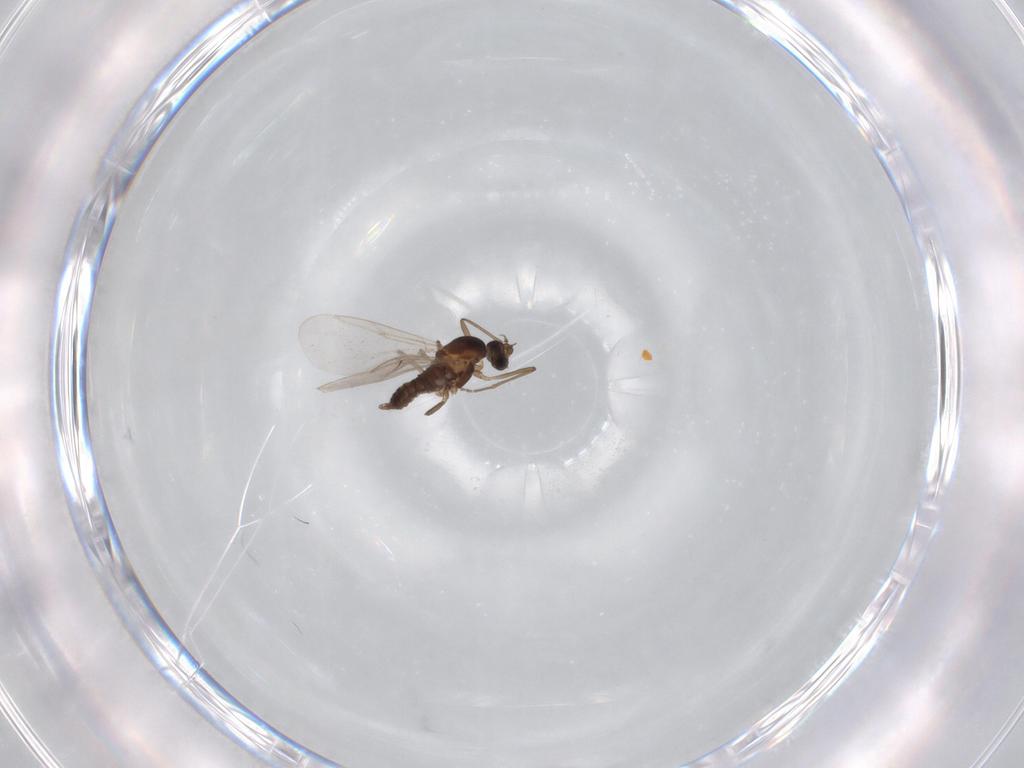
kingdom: Animalia
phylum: Arthropoda
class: Insecta
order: Diptera
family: Cecidomyiidae
